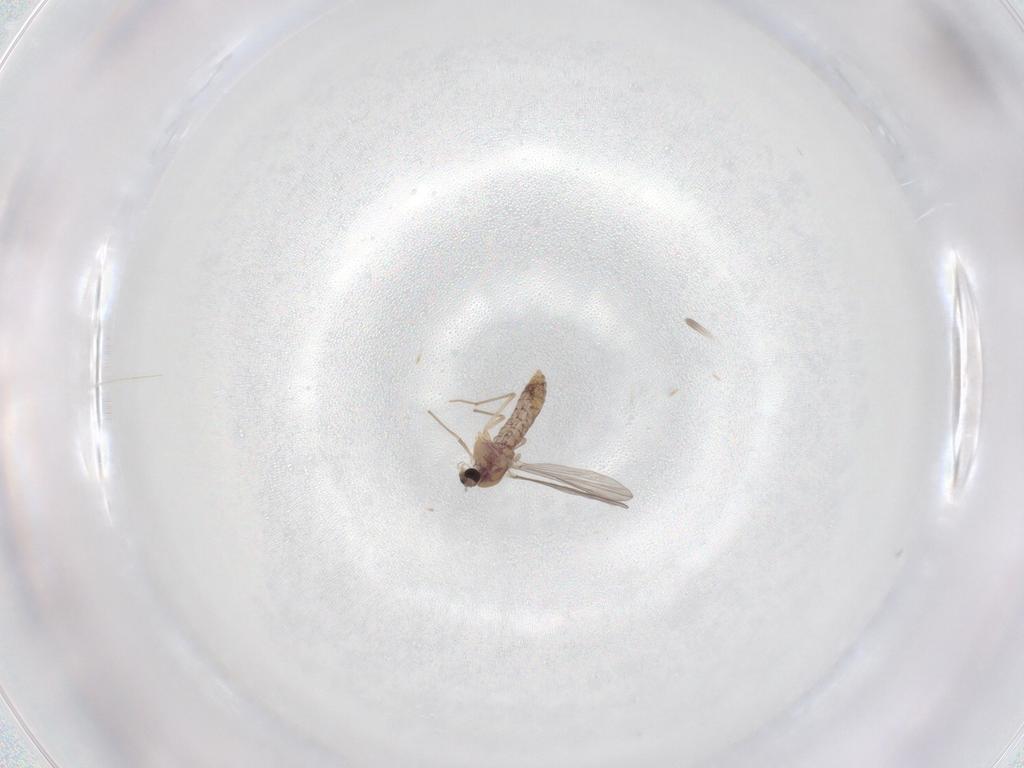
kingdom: Animalia
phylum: Arthropoda
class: Insecta
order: Diptera
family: Chironomidae
